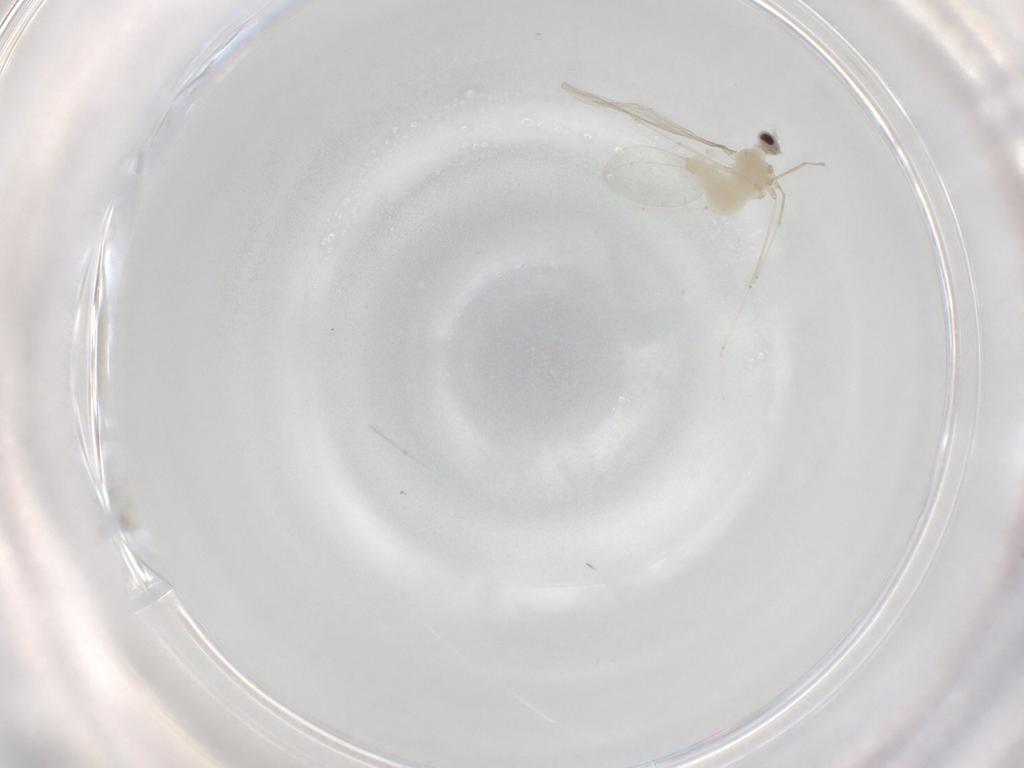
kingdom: Animalia
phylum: Arthropoda
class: Insecta
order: Diptera
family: Cecidomyiidae
